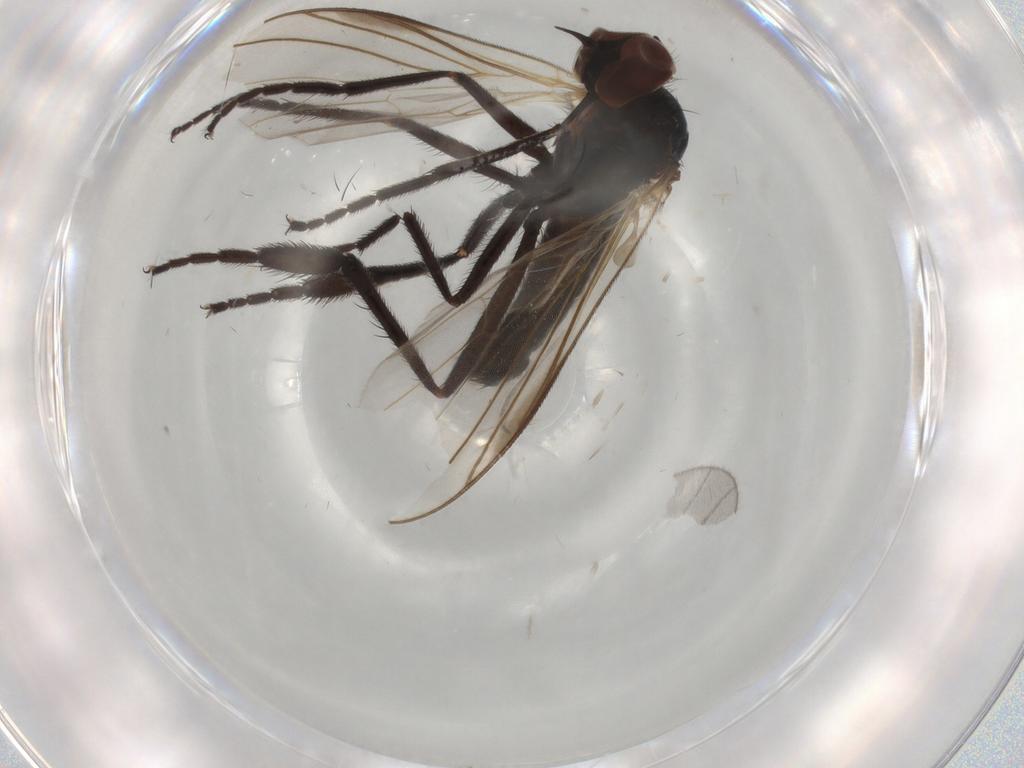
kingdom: Animalia
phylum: Arthropoda
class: Insecta
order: Diptera
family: Empididae
